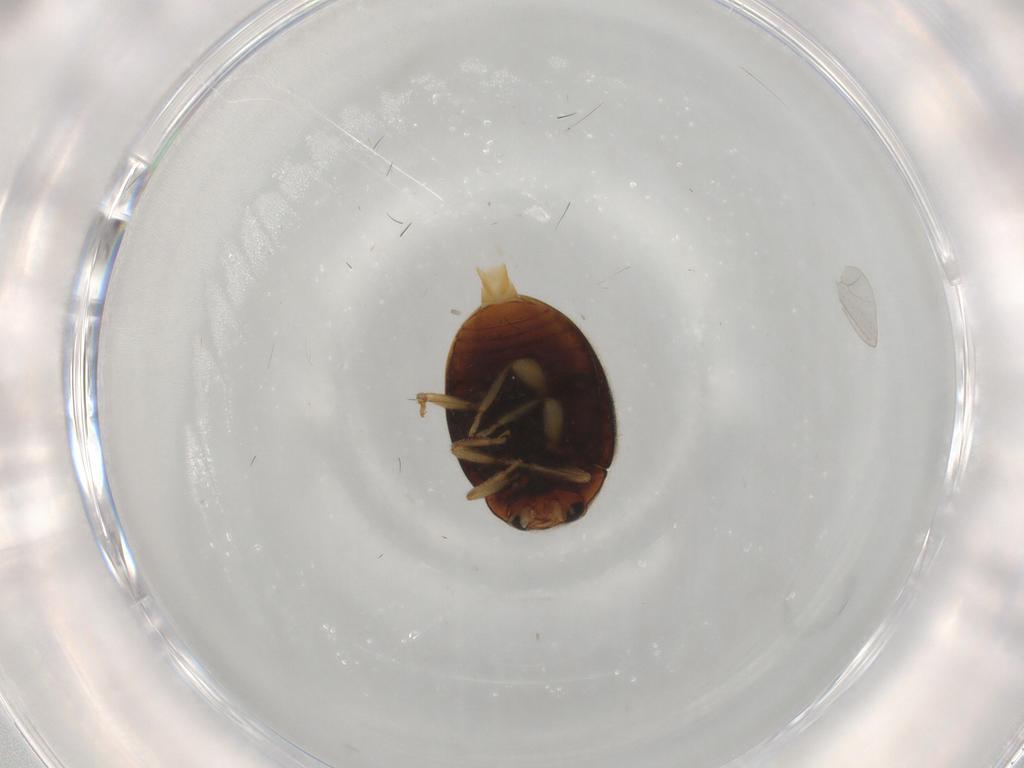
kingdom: Animalia
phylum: Arthropoda
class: Insecta
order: Coleoptera
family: Coccinellidae
